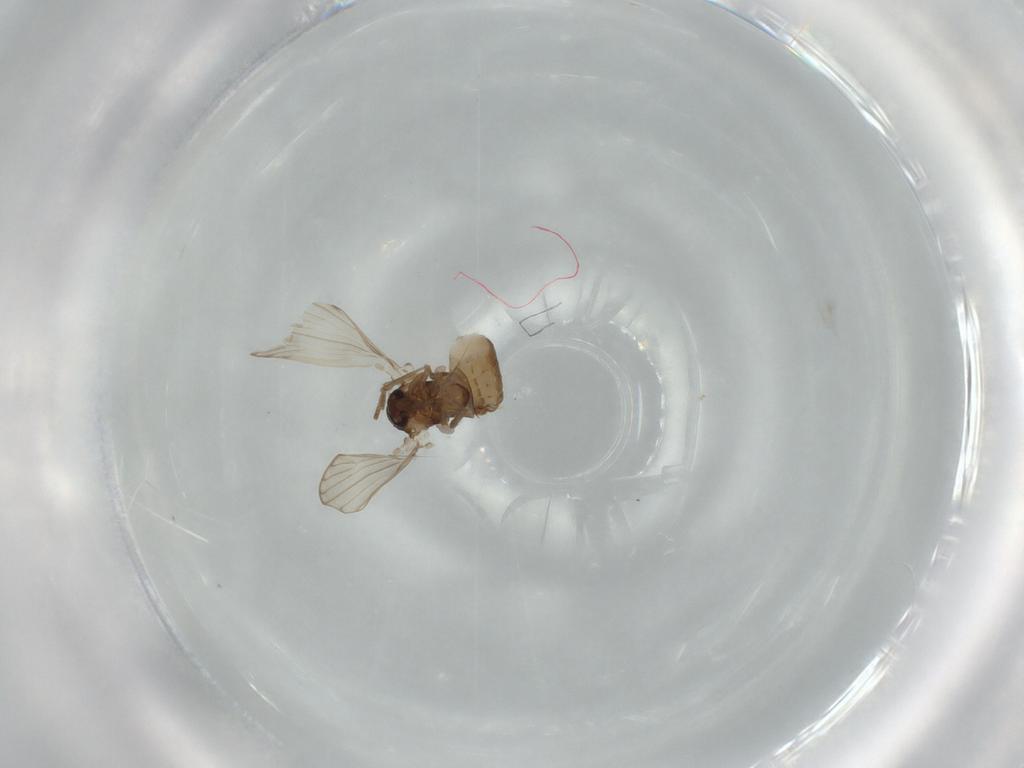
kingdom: Animalia
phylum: Arthropoda
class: Insecta
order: Diptera
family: Psychodidae
